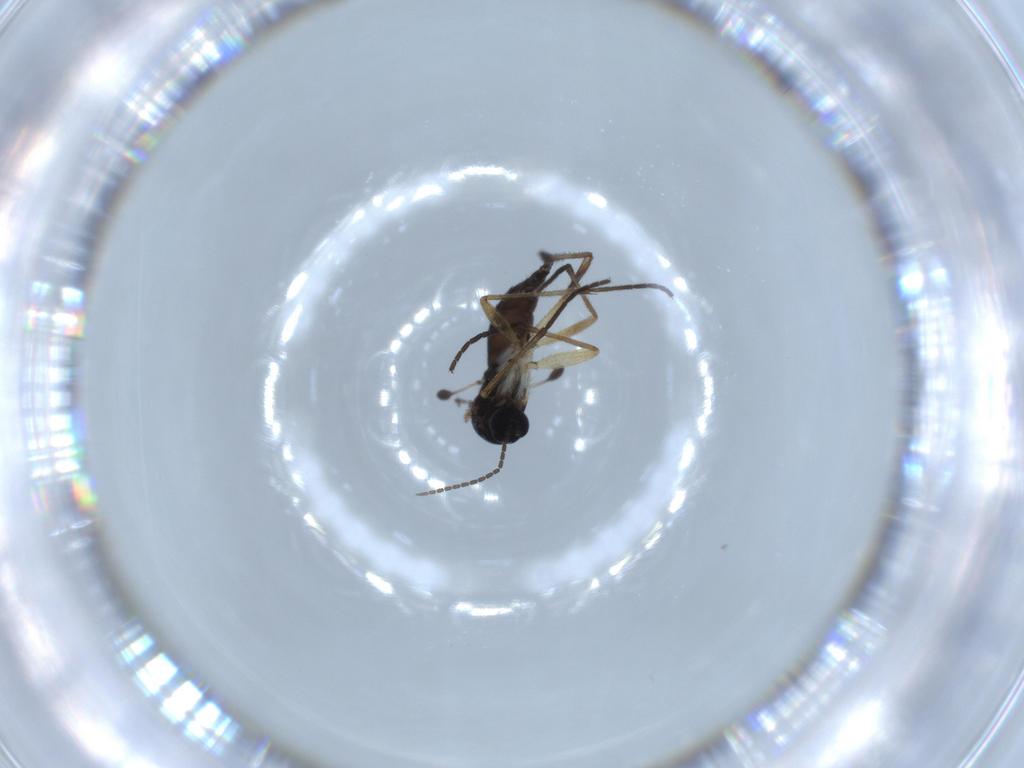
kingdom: Animalia
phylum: Arthropoda
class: Insecta
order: Diptera
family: Sciaridae
